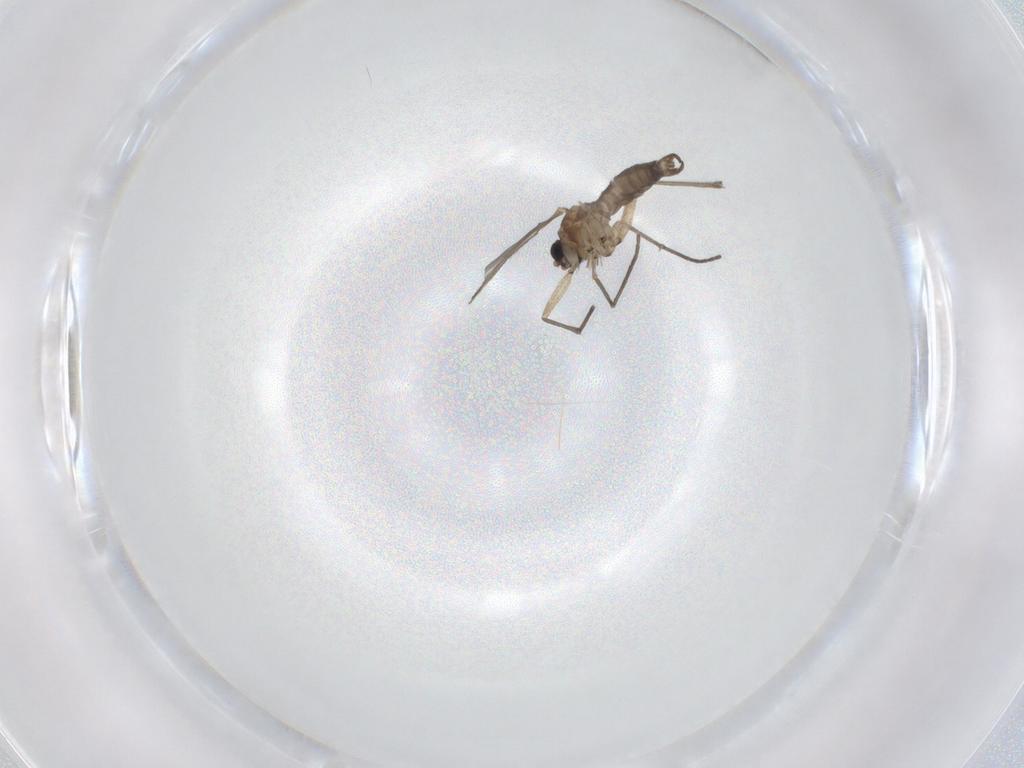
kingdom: Animalia
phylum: Arthropoda
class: Insecta
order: Diptera
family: Sciaridae
